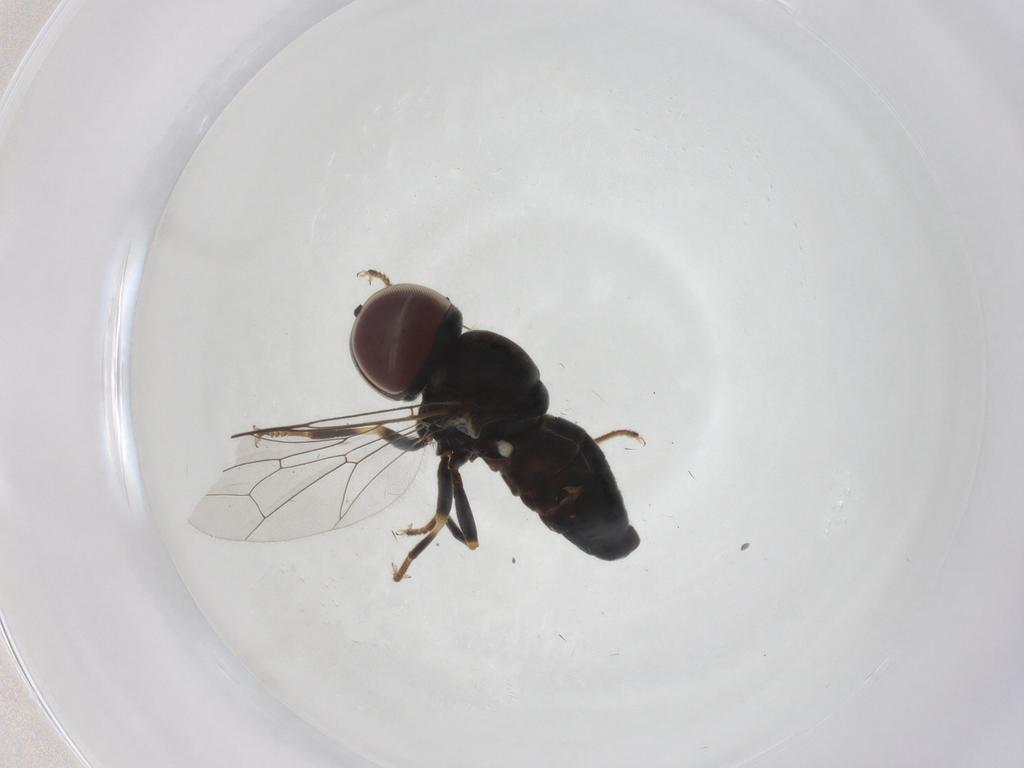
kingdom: Animalia
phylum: Arthropoda
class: Insecta
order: Diptera
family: Pipunculidae
